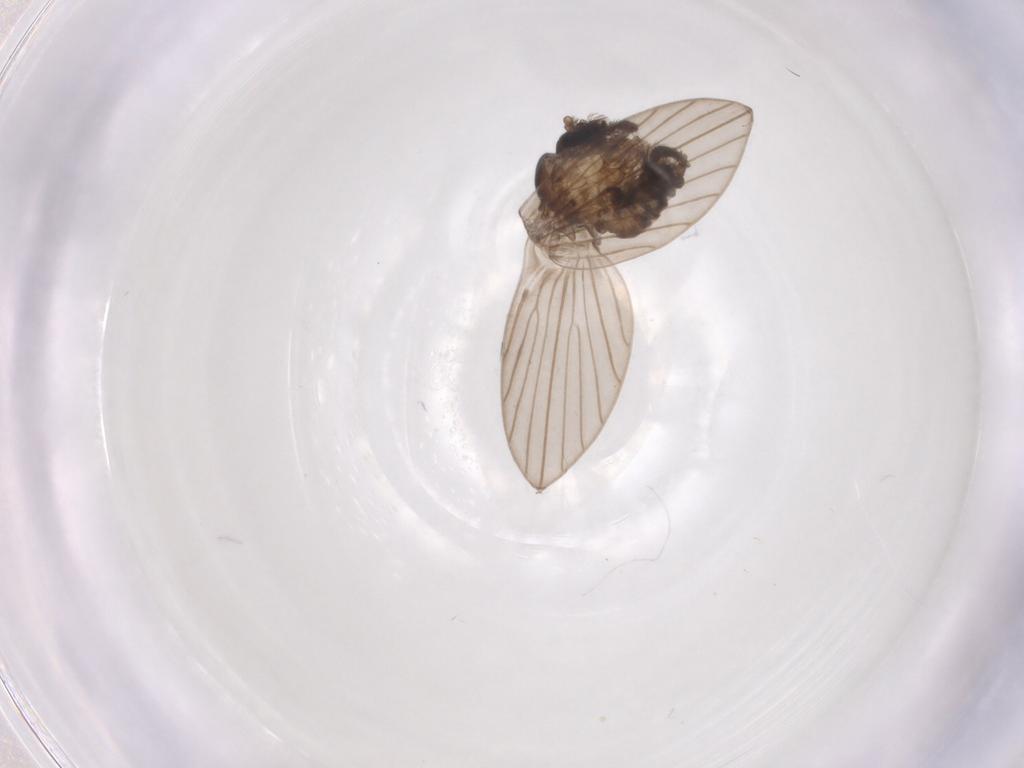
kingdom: Animalia
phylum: Arthropoda
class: Insecta
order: Diptera
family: Psychodidae
